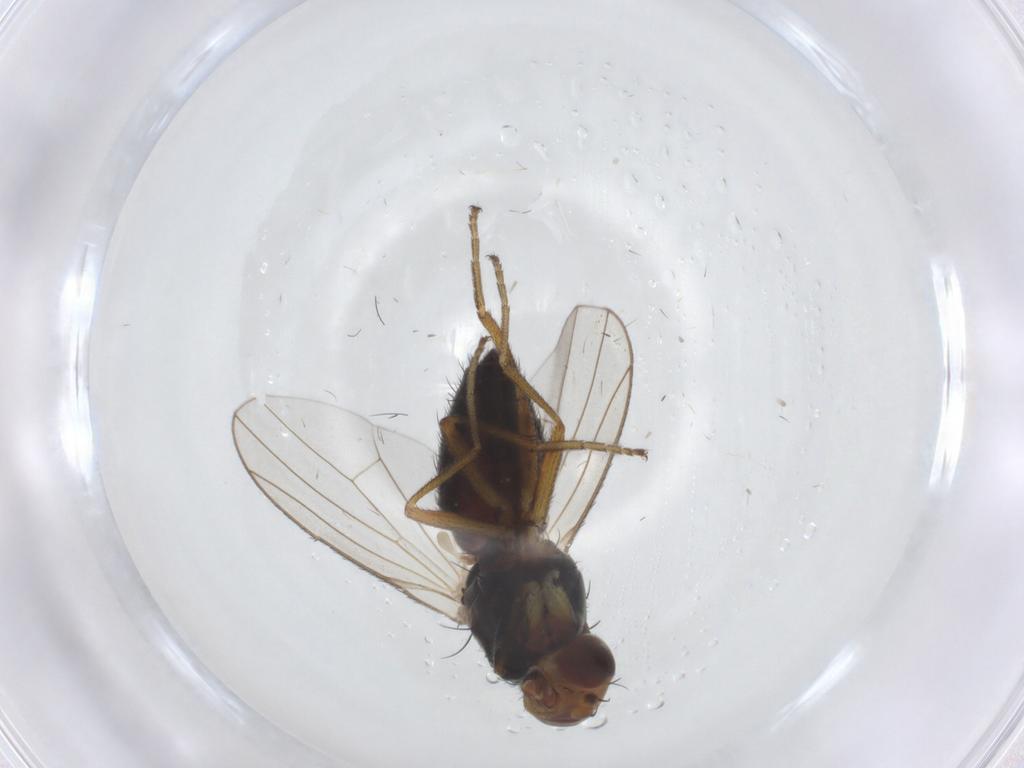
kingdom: Animalia
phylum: Arthropoda
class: Insecta
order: Diptera
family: Heleomyzidae
